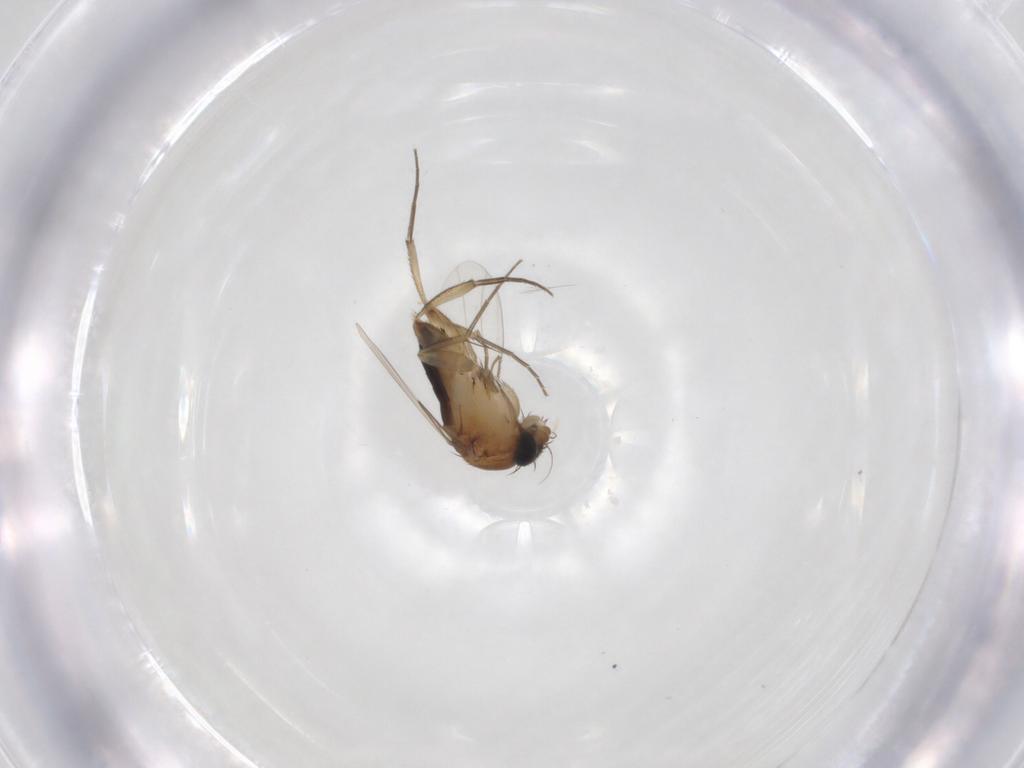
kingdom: Animalia
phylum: Arthropoda
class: Insecta
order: Diptera
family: Phoridae
